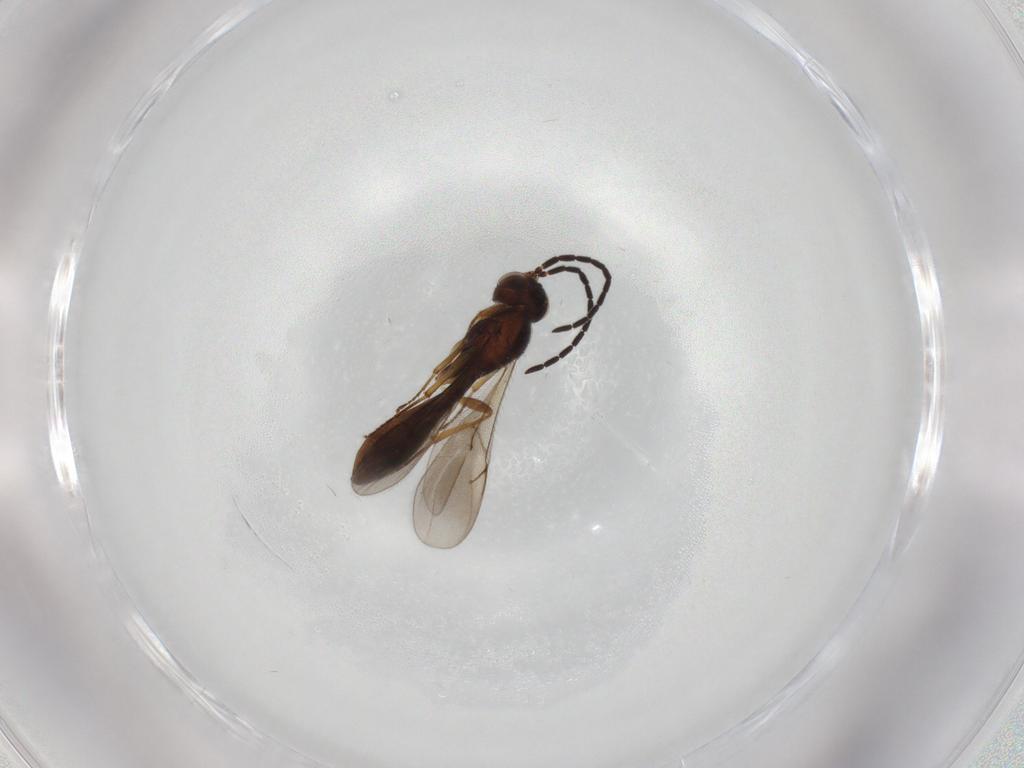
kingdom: Animalia
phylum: Arthropoda
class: Insecta
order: Hymenoptera
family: Scelionidae
